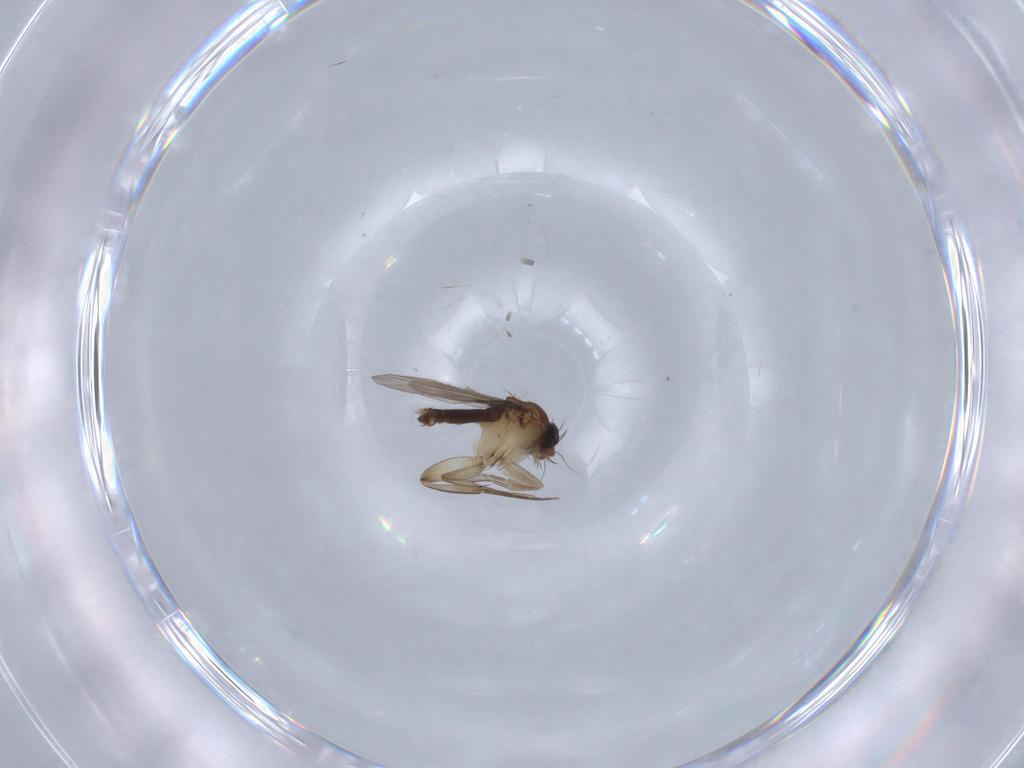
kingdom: Animalia
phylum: Arthropoda
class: Insecta
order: Diptera
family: Phoridae
